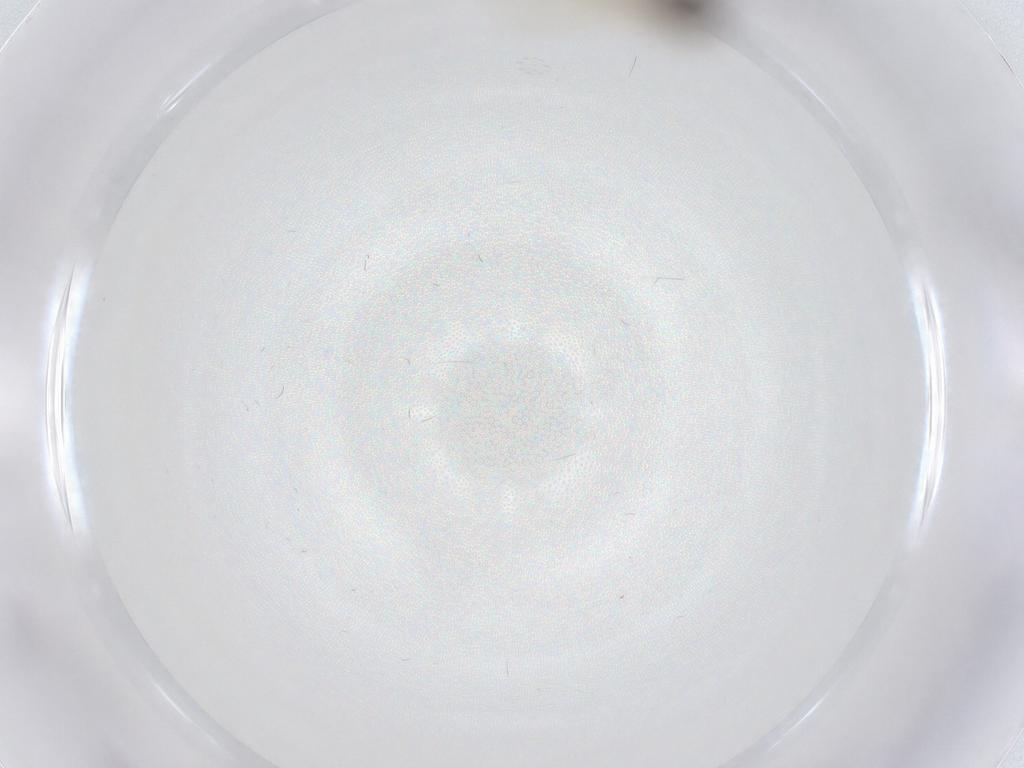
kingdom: Animalia
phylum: Arthropoda
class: Insecta
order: Diptera
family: Chironomidae
